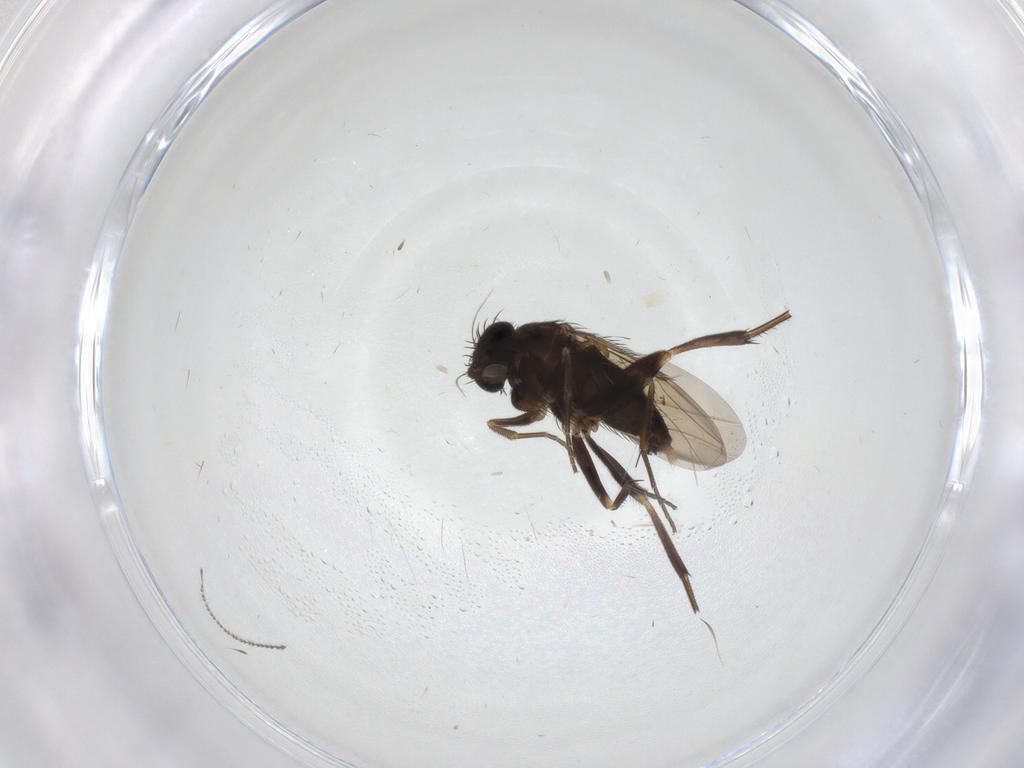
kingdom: Animalia
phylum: Arthropoda
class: Insecta
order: Diptera
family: Phoridae
